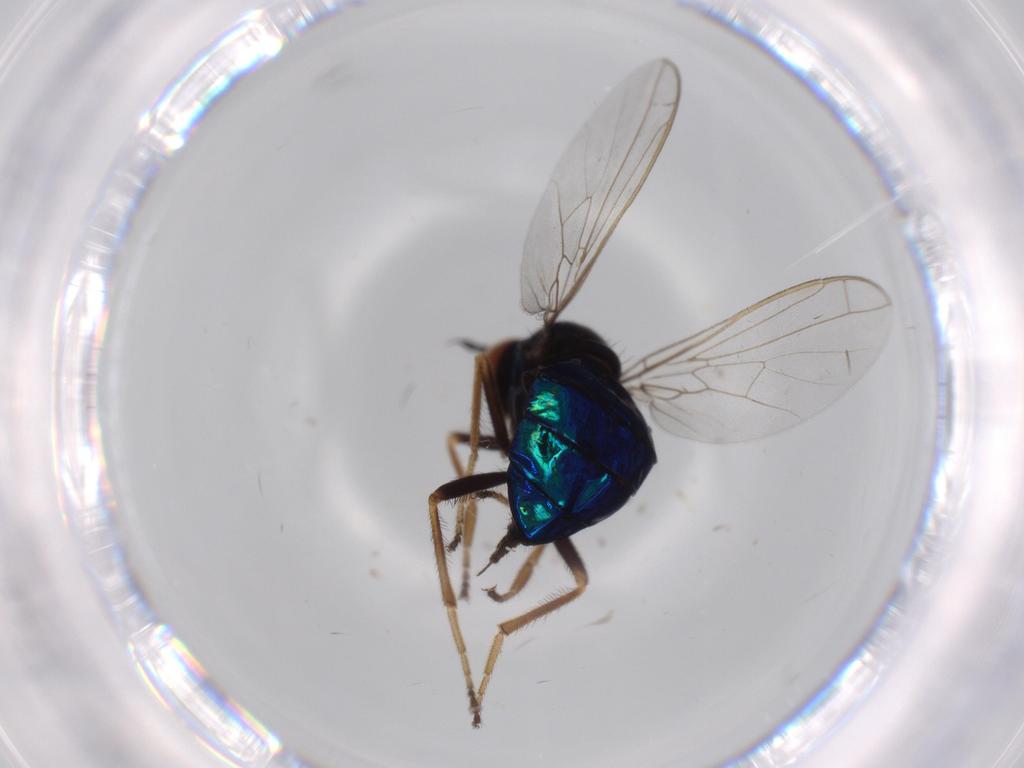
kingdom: Animalia
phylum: Arthropoda
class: Insecta
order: Diptera
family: Empididae
